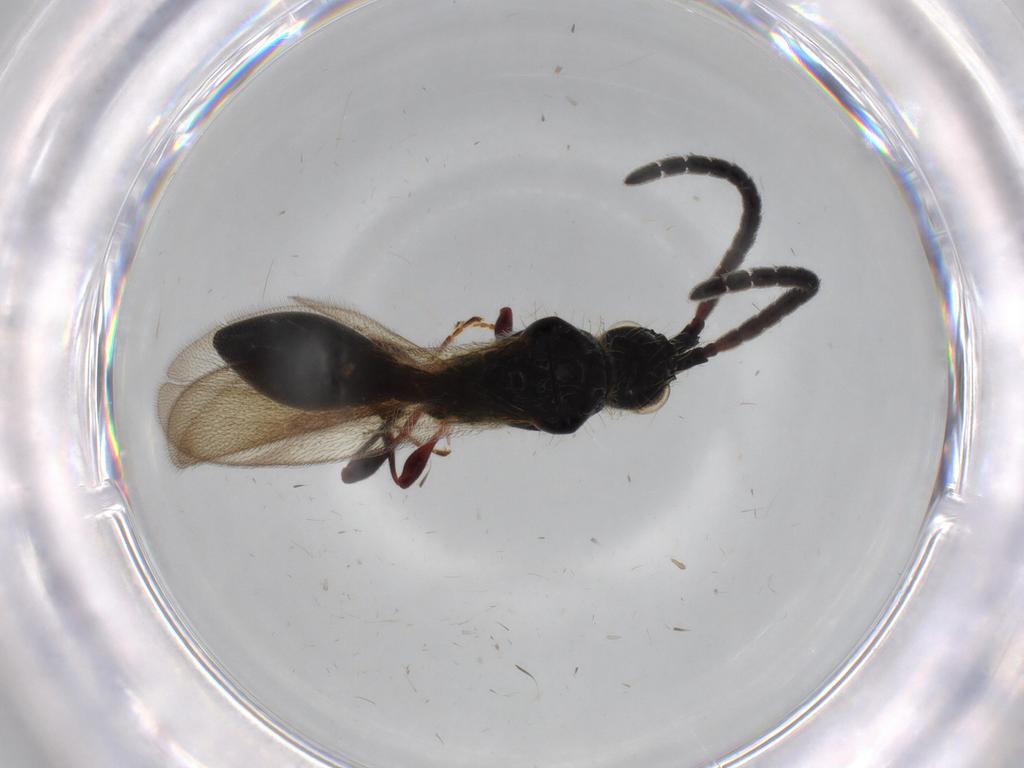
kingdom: Animalia
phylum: Arthropoda
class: Insecta
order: Hymenoptera
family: Diapriidae
